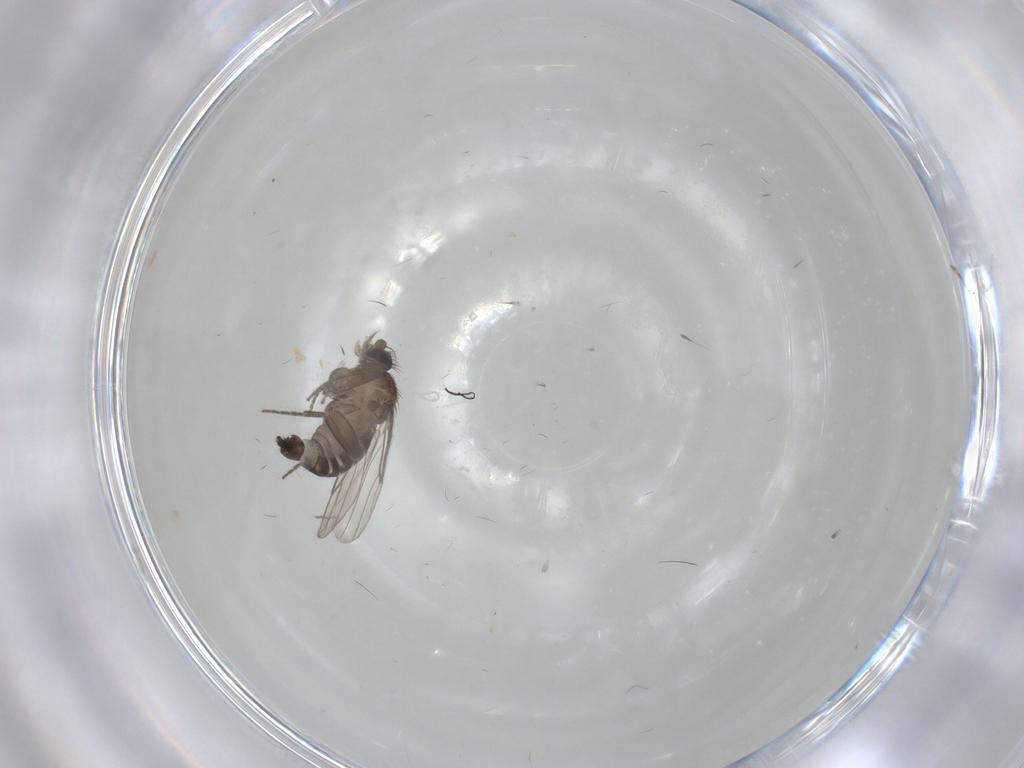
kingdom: Animalia
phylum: Arthropoda
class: Insecta
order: Diptera
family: Phoridae
